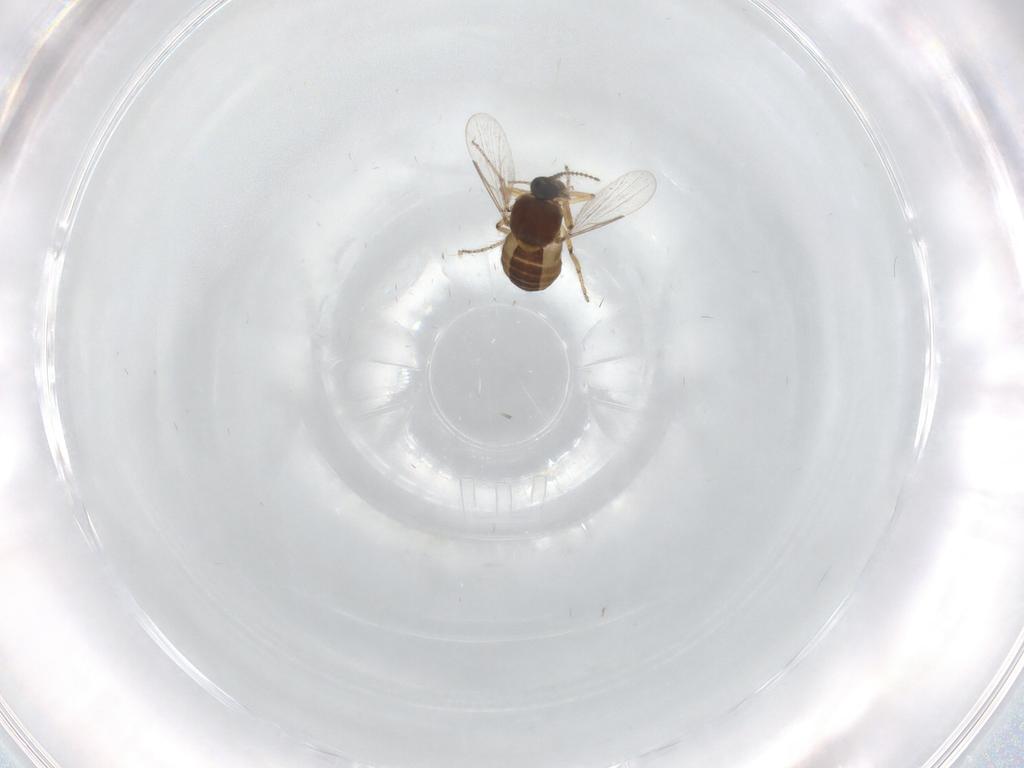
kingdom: Animalia
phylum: Arthropoda
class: Insecta
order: Diptera
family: Ceratopogonidae
